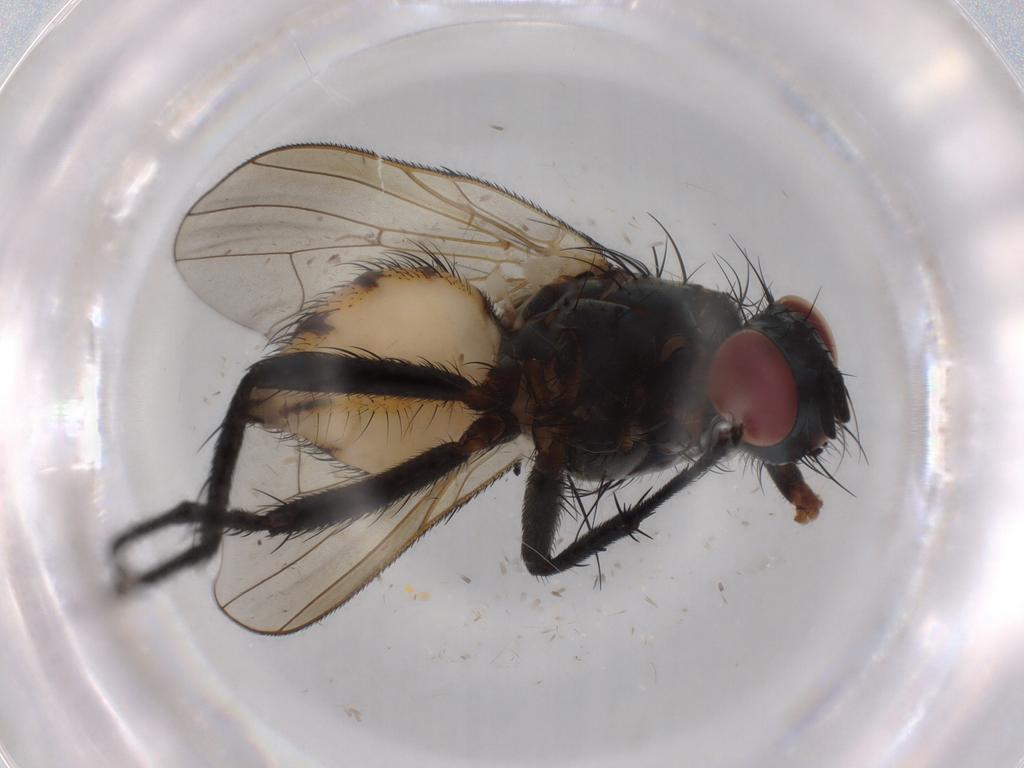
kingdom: Animalia
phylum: Arthropoda
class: Insecta
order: Diptera
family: Anthomyiidae
